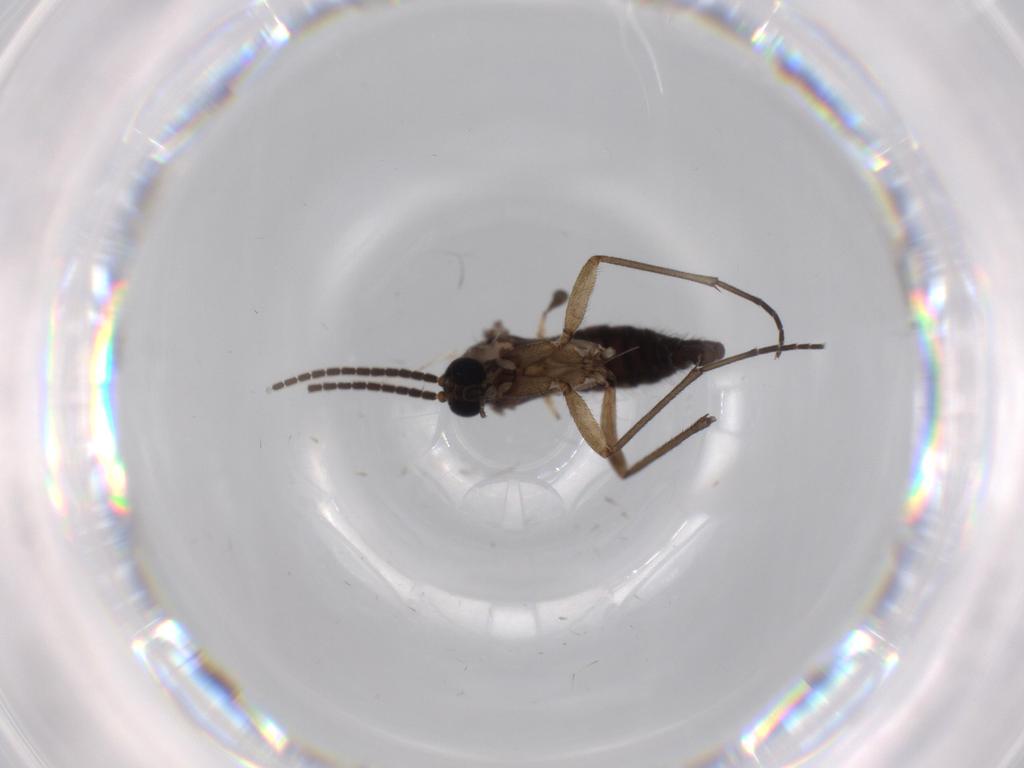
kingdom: Animalia
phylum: Arthropoda
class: Insecta
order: Diptera
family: Sciaridae
